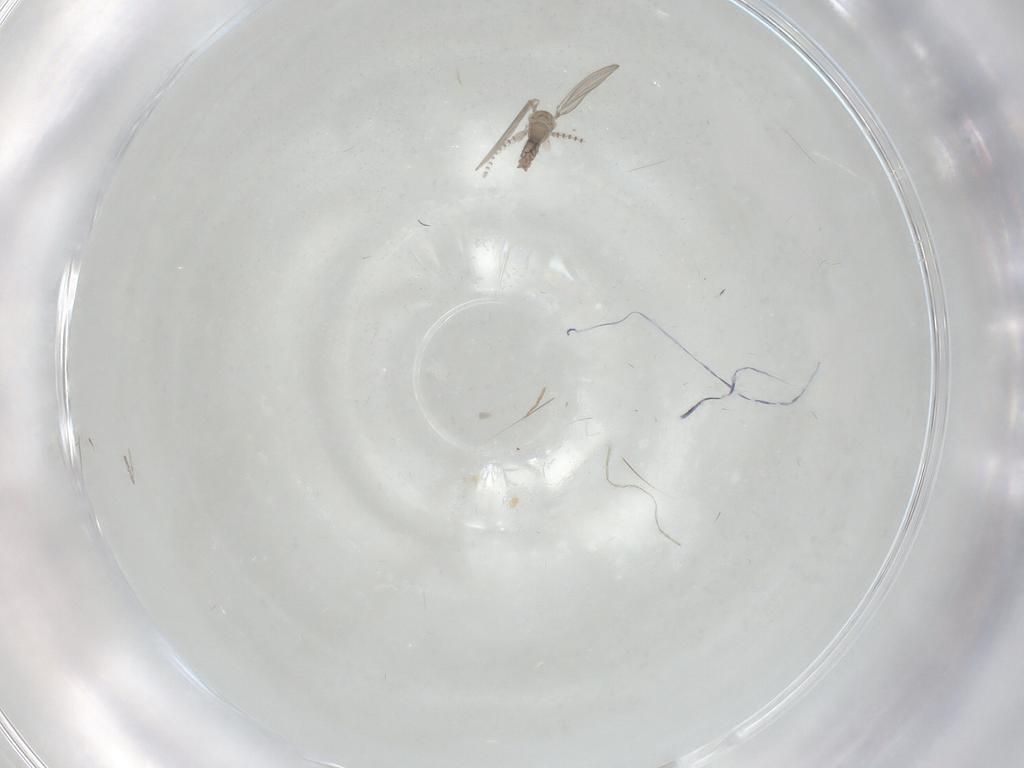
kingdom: Animalia
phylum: Arthropoda
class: Insecta
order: Diptera
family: Psychodidae
